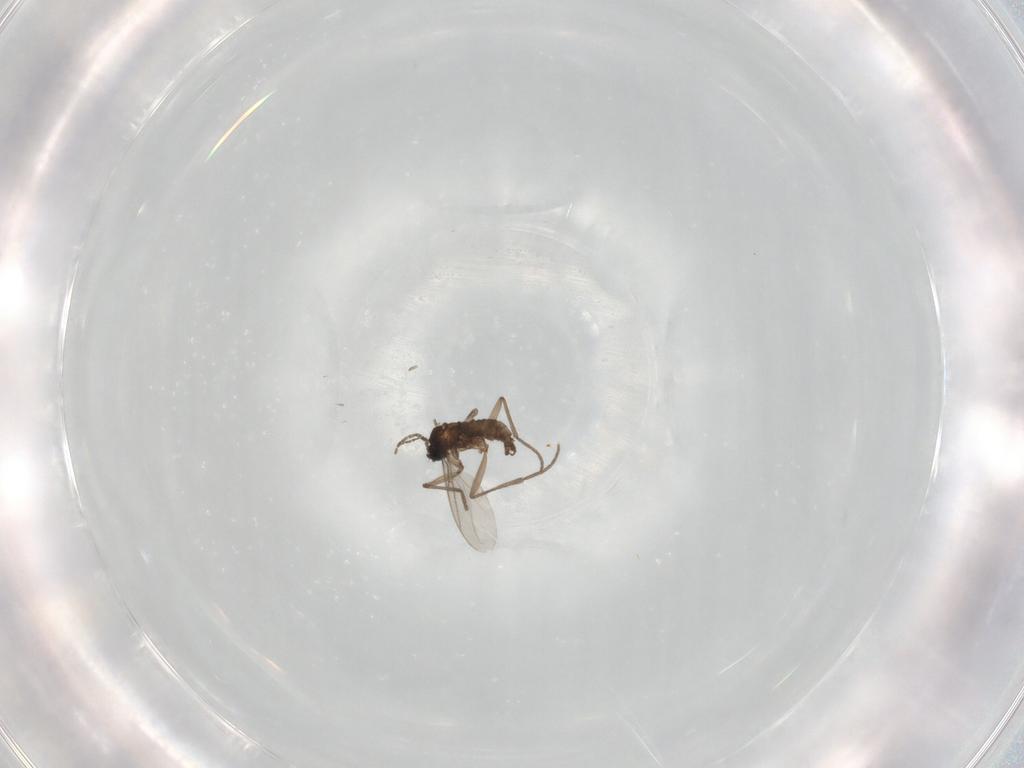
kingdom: Animalia
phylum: Arthropoda
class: Insecta
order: Diptera
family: Sciaridae
